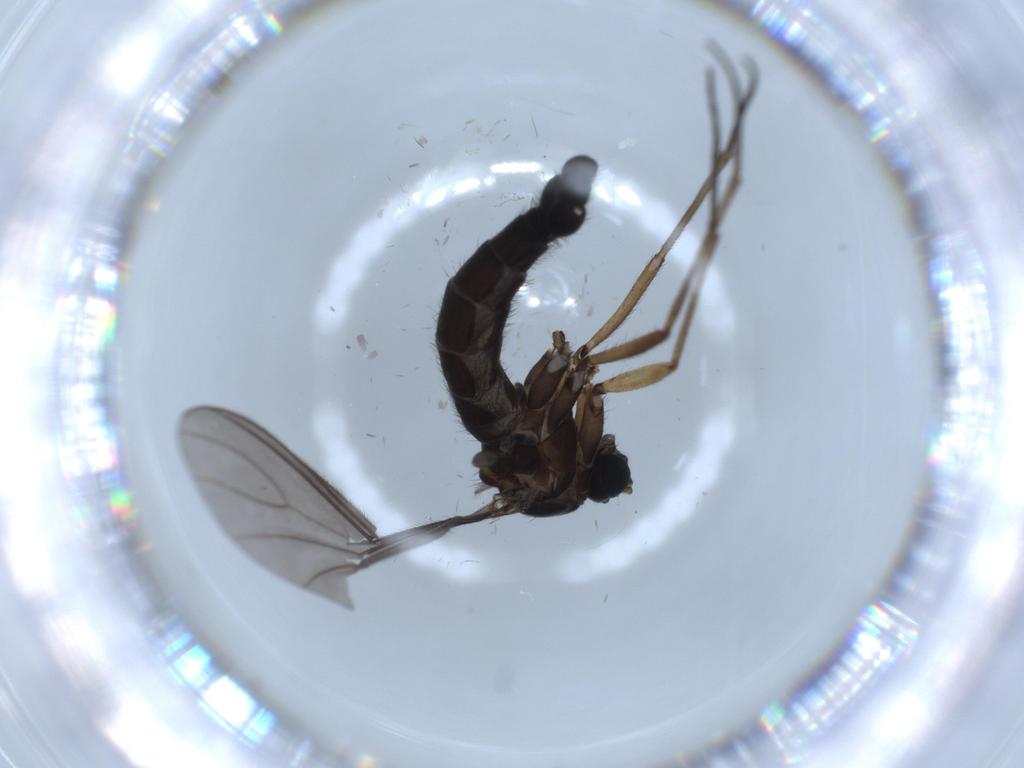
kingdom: Animalia
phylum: Arthropoda
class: Insecta
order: Diptera
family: Sciaridae
